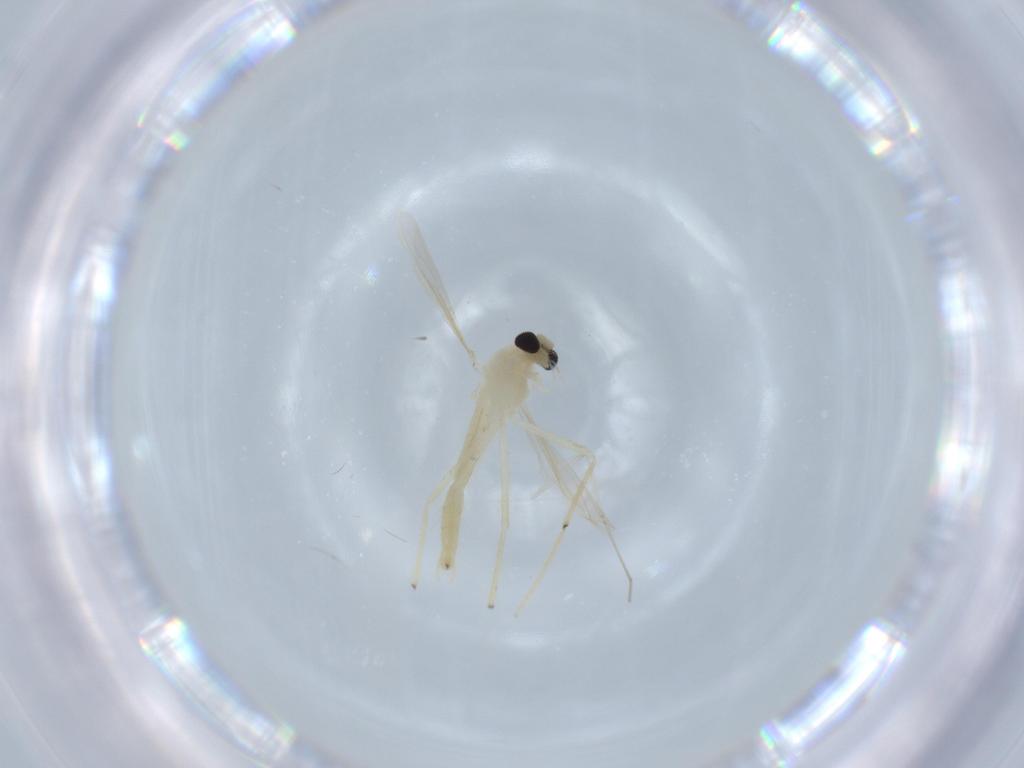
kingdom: Animalia
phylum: Arthropoda
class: Insecta
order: Diptera
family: Chironomidae
